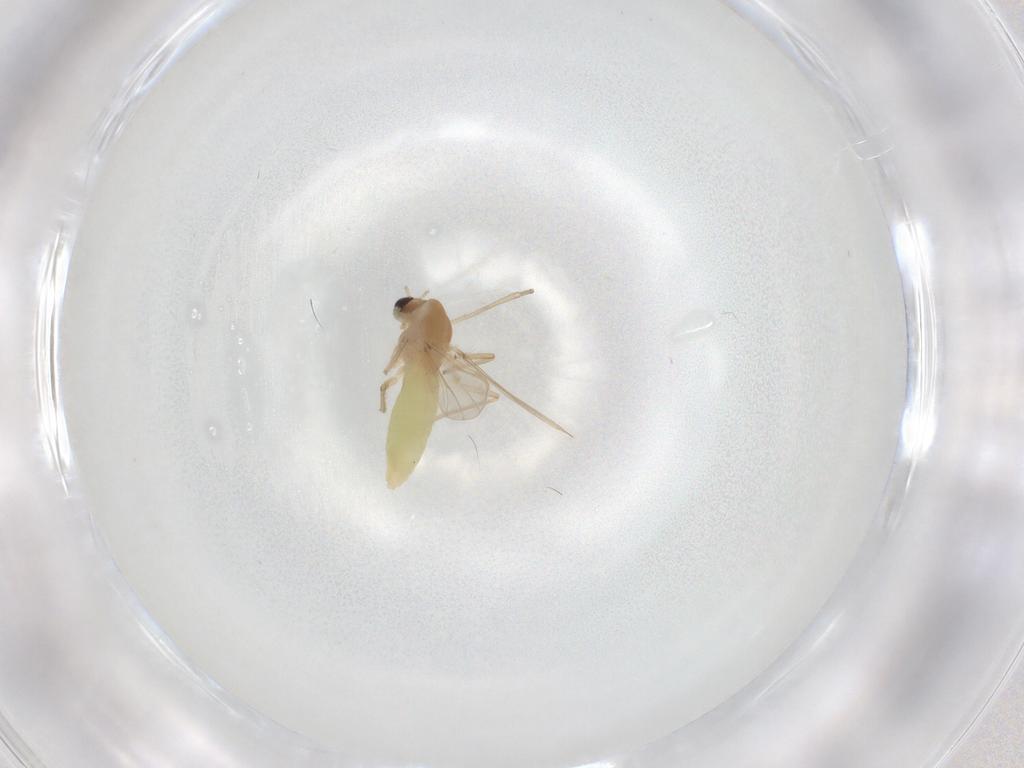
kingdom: Animalia
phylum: Arthropoda
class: Insecta
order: Diptera
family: Chironomidae
